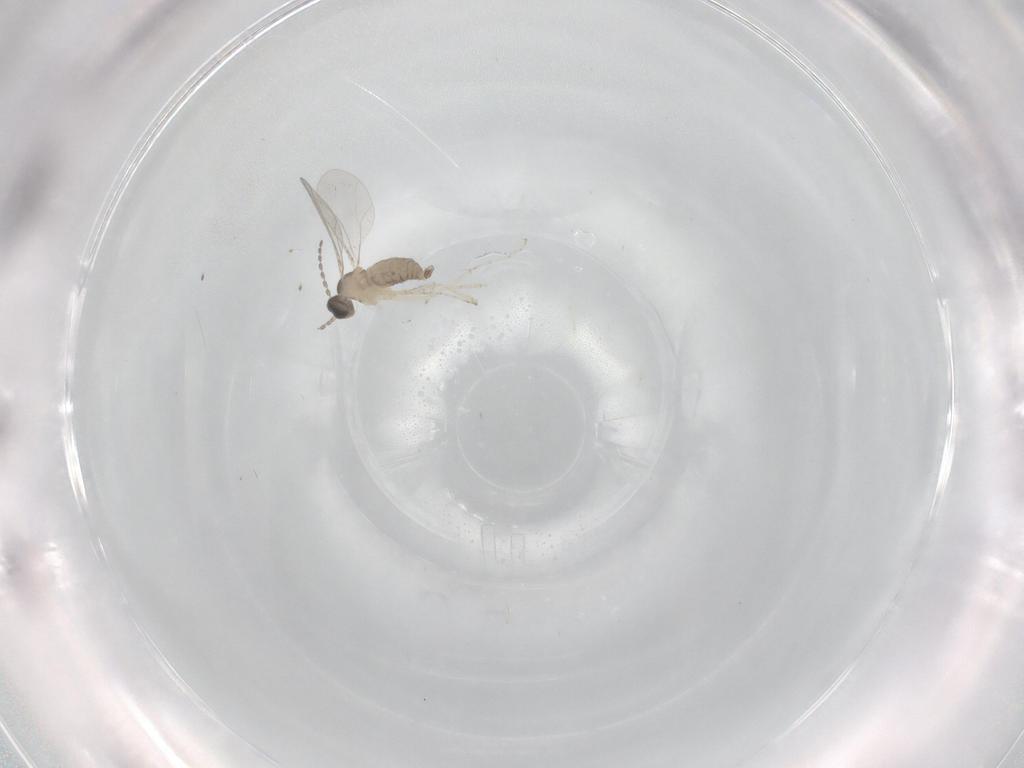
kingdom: Animalia
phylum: Arthropoda
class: Insecta
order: Diptera
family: Cecidomyiidae
